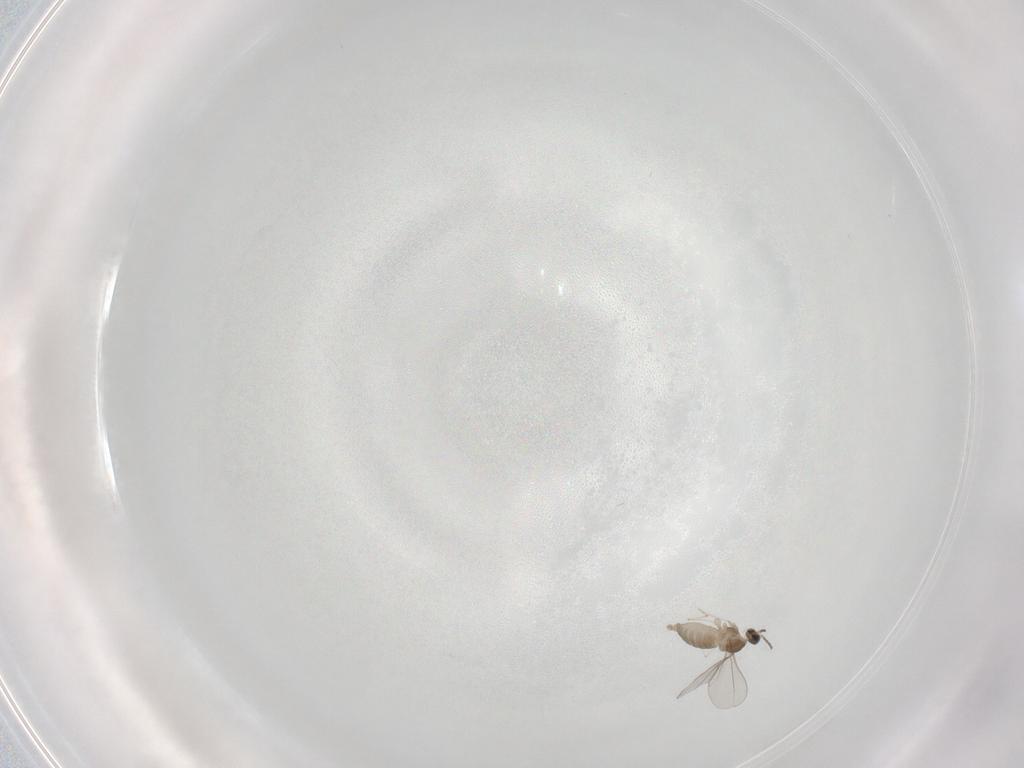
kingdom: Animalia
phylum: Arthropoda
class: Insecta
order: Diptera
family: Cecidomyiidae
